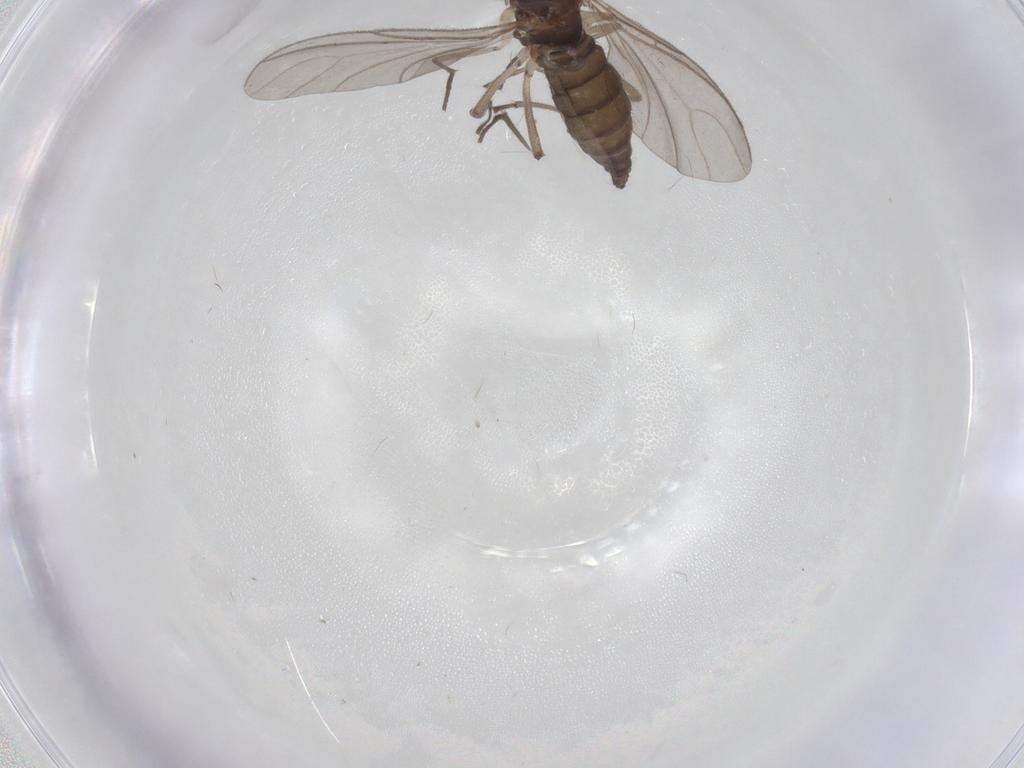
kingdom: Animalia
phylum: Arthropoda
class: Insecta
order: Diptera
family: Sciaridae
